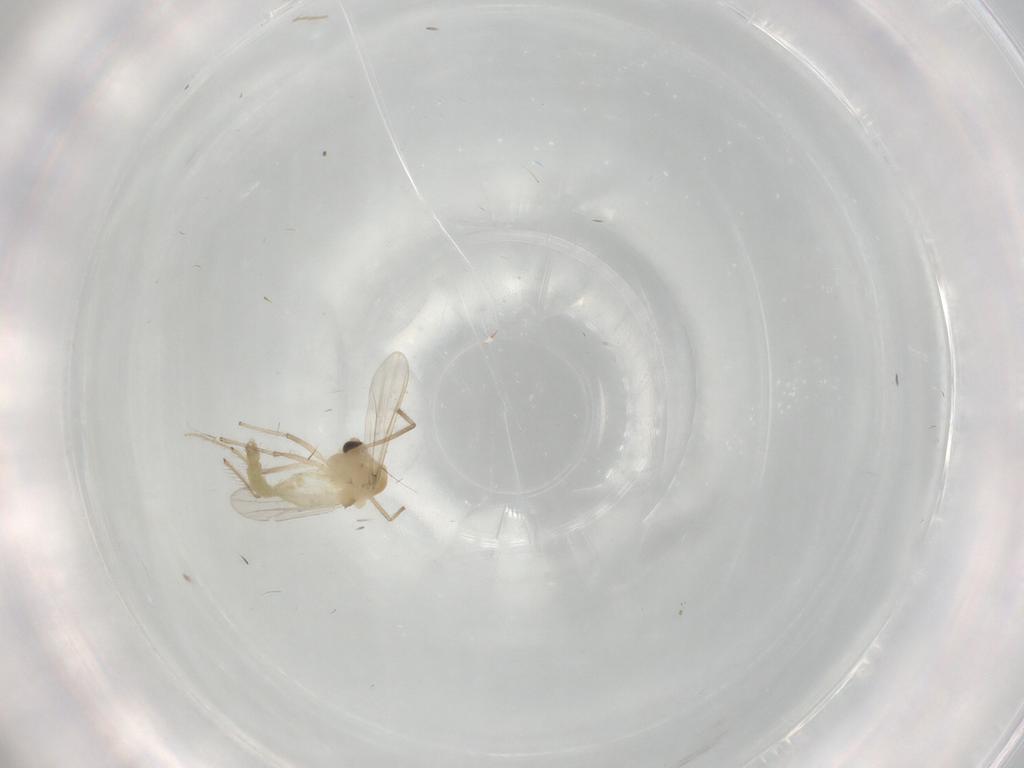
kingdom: Animalia
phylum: Arthropoda
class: Insecta
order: Diptera
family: Chironomidae
